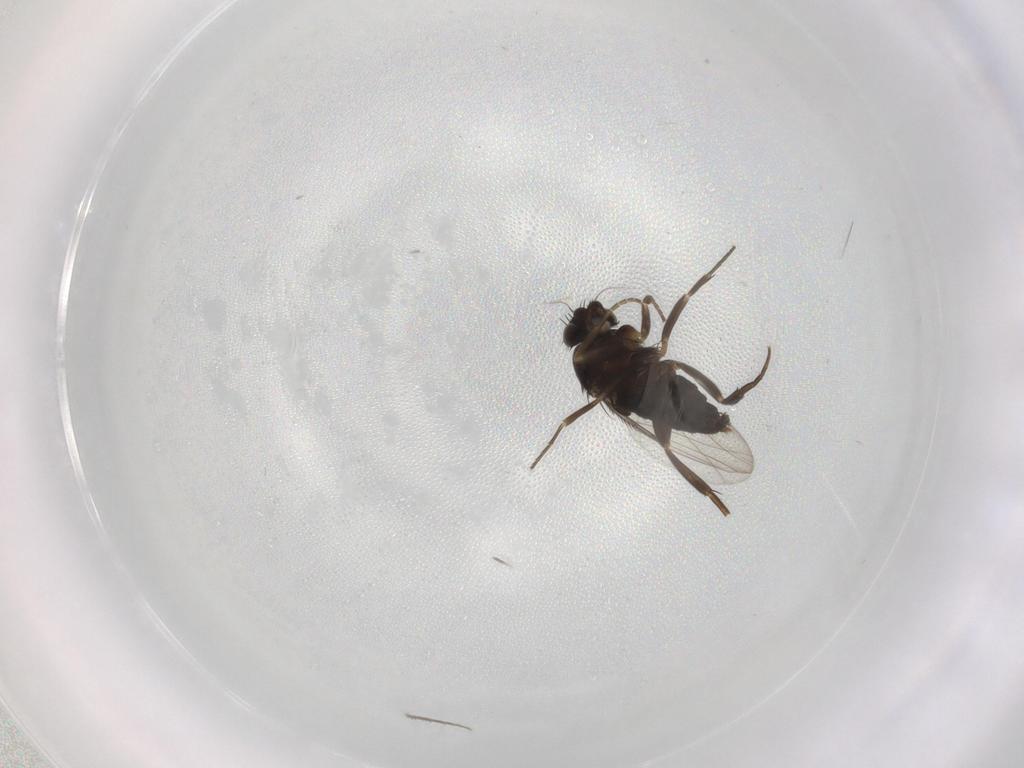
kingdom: Animalia
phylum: Arthropoda
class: Insecta
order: Diptera
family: Phoridae
